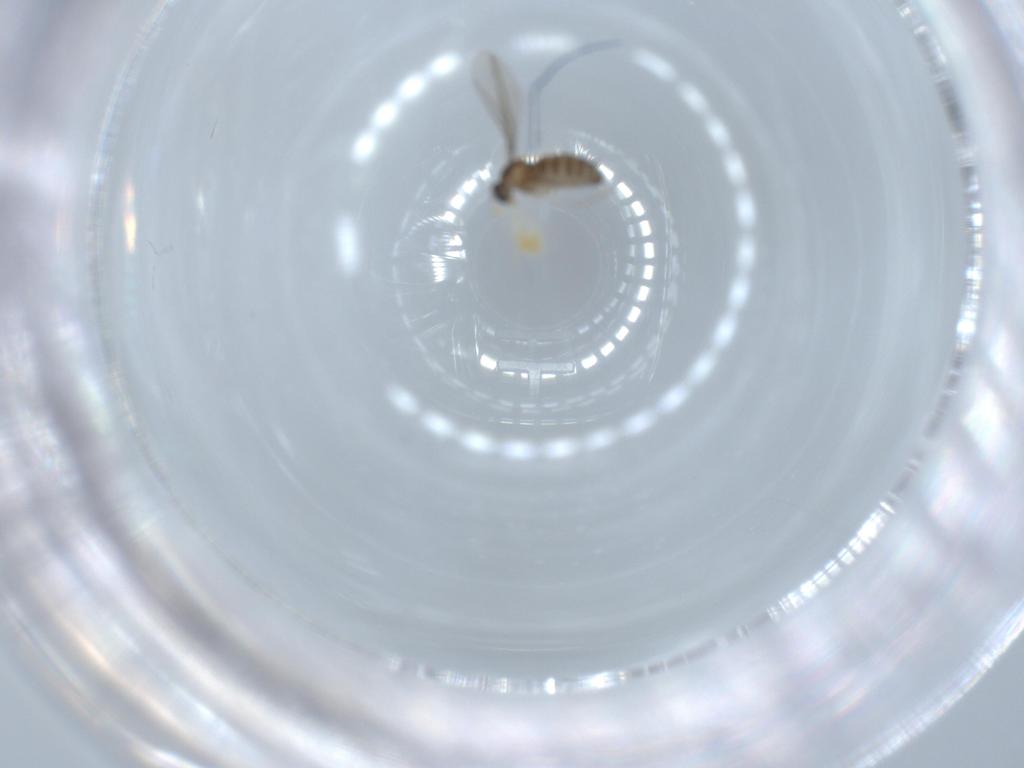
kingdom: Animalia
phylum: Arthropoda
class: Insecta
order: Diptera
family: Cecidomyiidae
